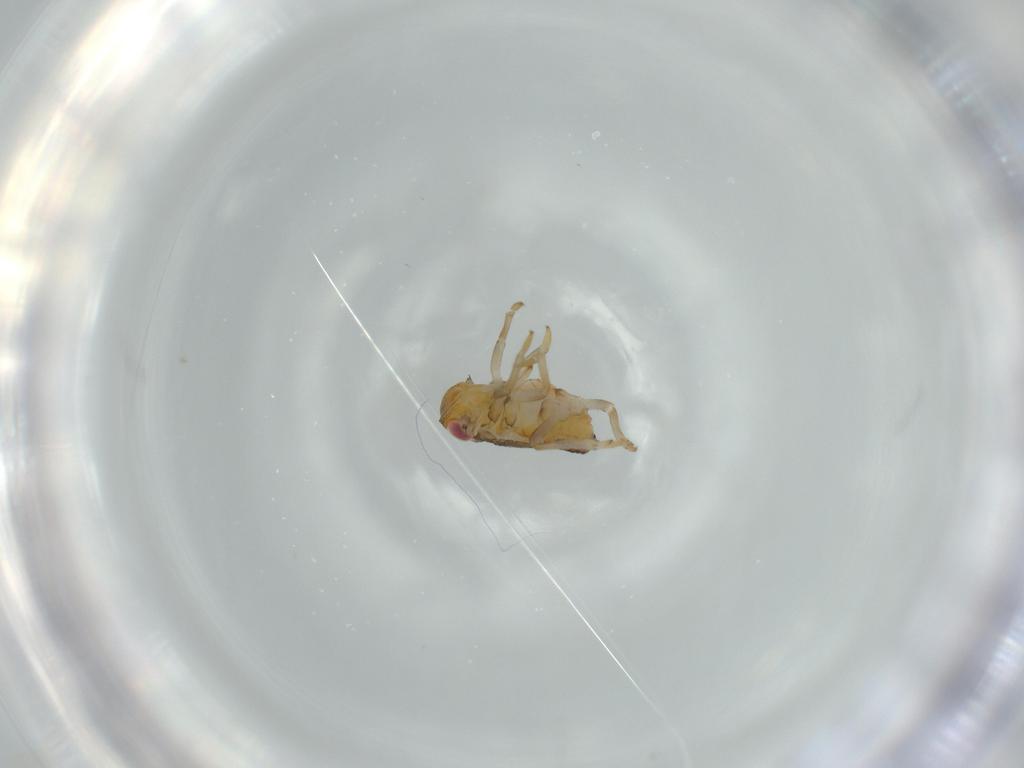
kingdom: Animalia
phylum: Arthropoda
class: Insecta
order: Hemiptera
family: Issidae
